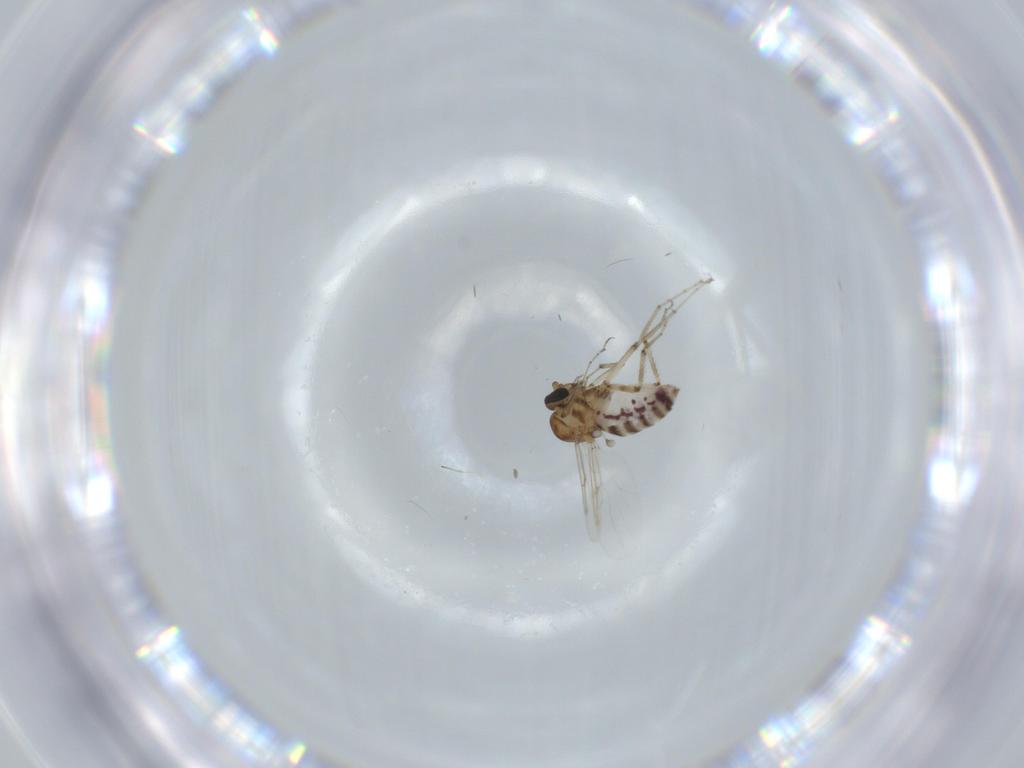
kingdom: Animalia
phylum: Arthropoda
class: Insecta
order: Diptera
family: Ceratopogonidae
